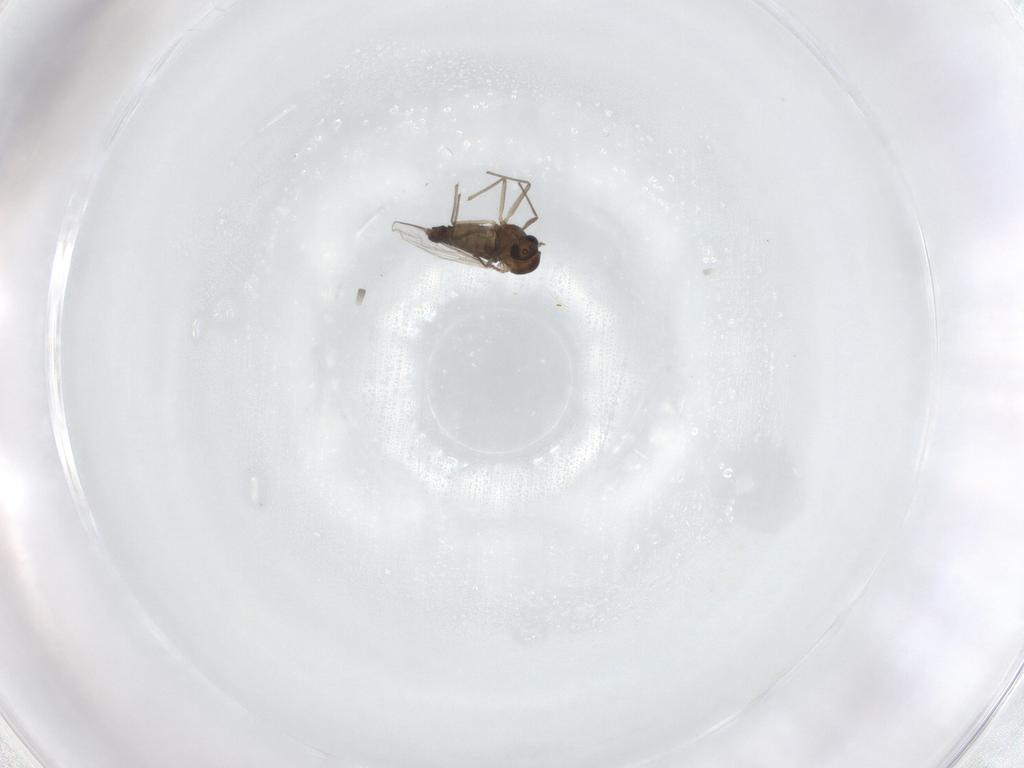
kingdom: Animalia
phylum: Arthropoda
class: Insecta
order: Diptera
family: Chironomidae
